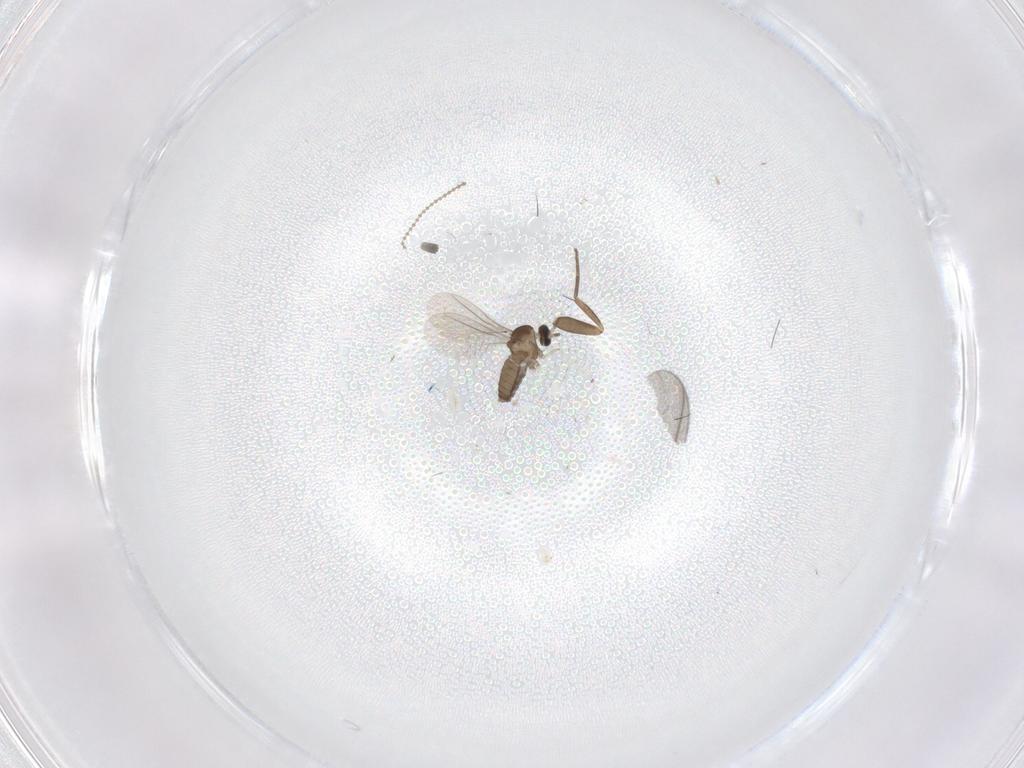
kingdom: Animalia
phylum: Arthropoda
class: Insecta
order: Diptera
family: Phoridae
